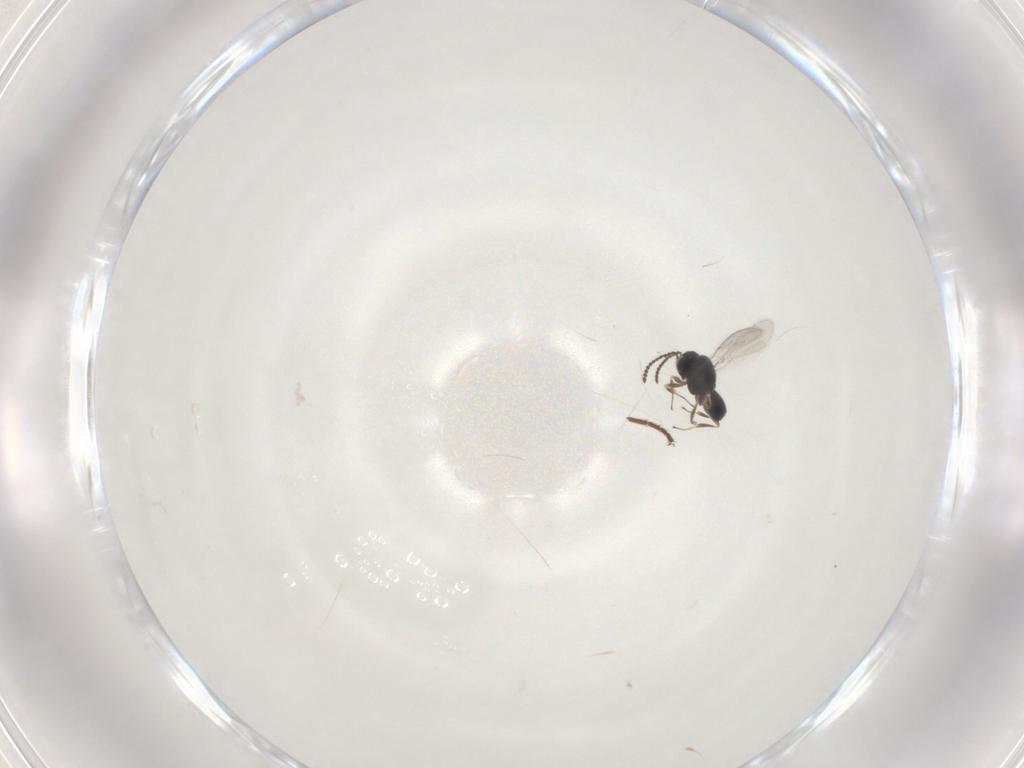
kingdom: Animalia
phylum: Arthropoda
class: Insecta
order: Hymenoptera
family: Scelionidae
